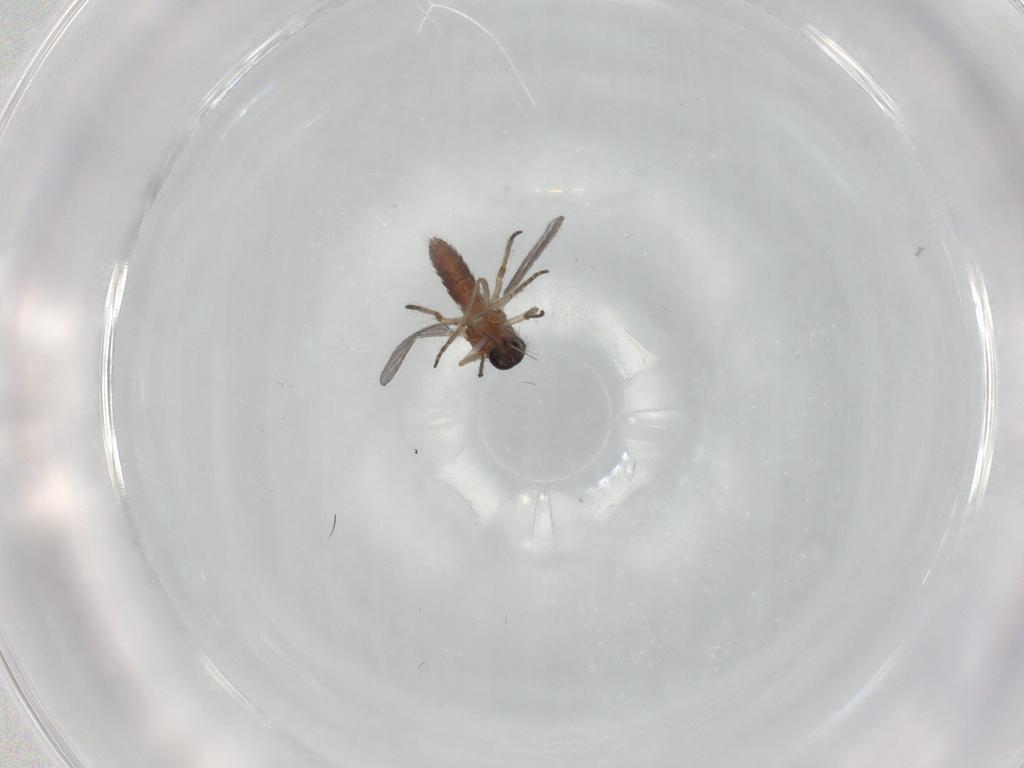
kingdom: Animalia
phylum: Arthropoda
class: Insecta
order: Diptera
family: Ceratopogonidae
